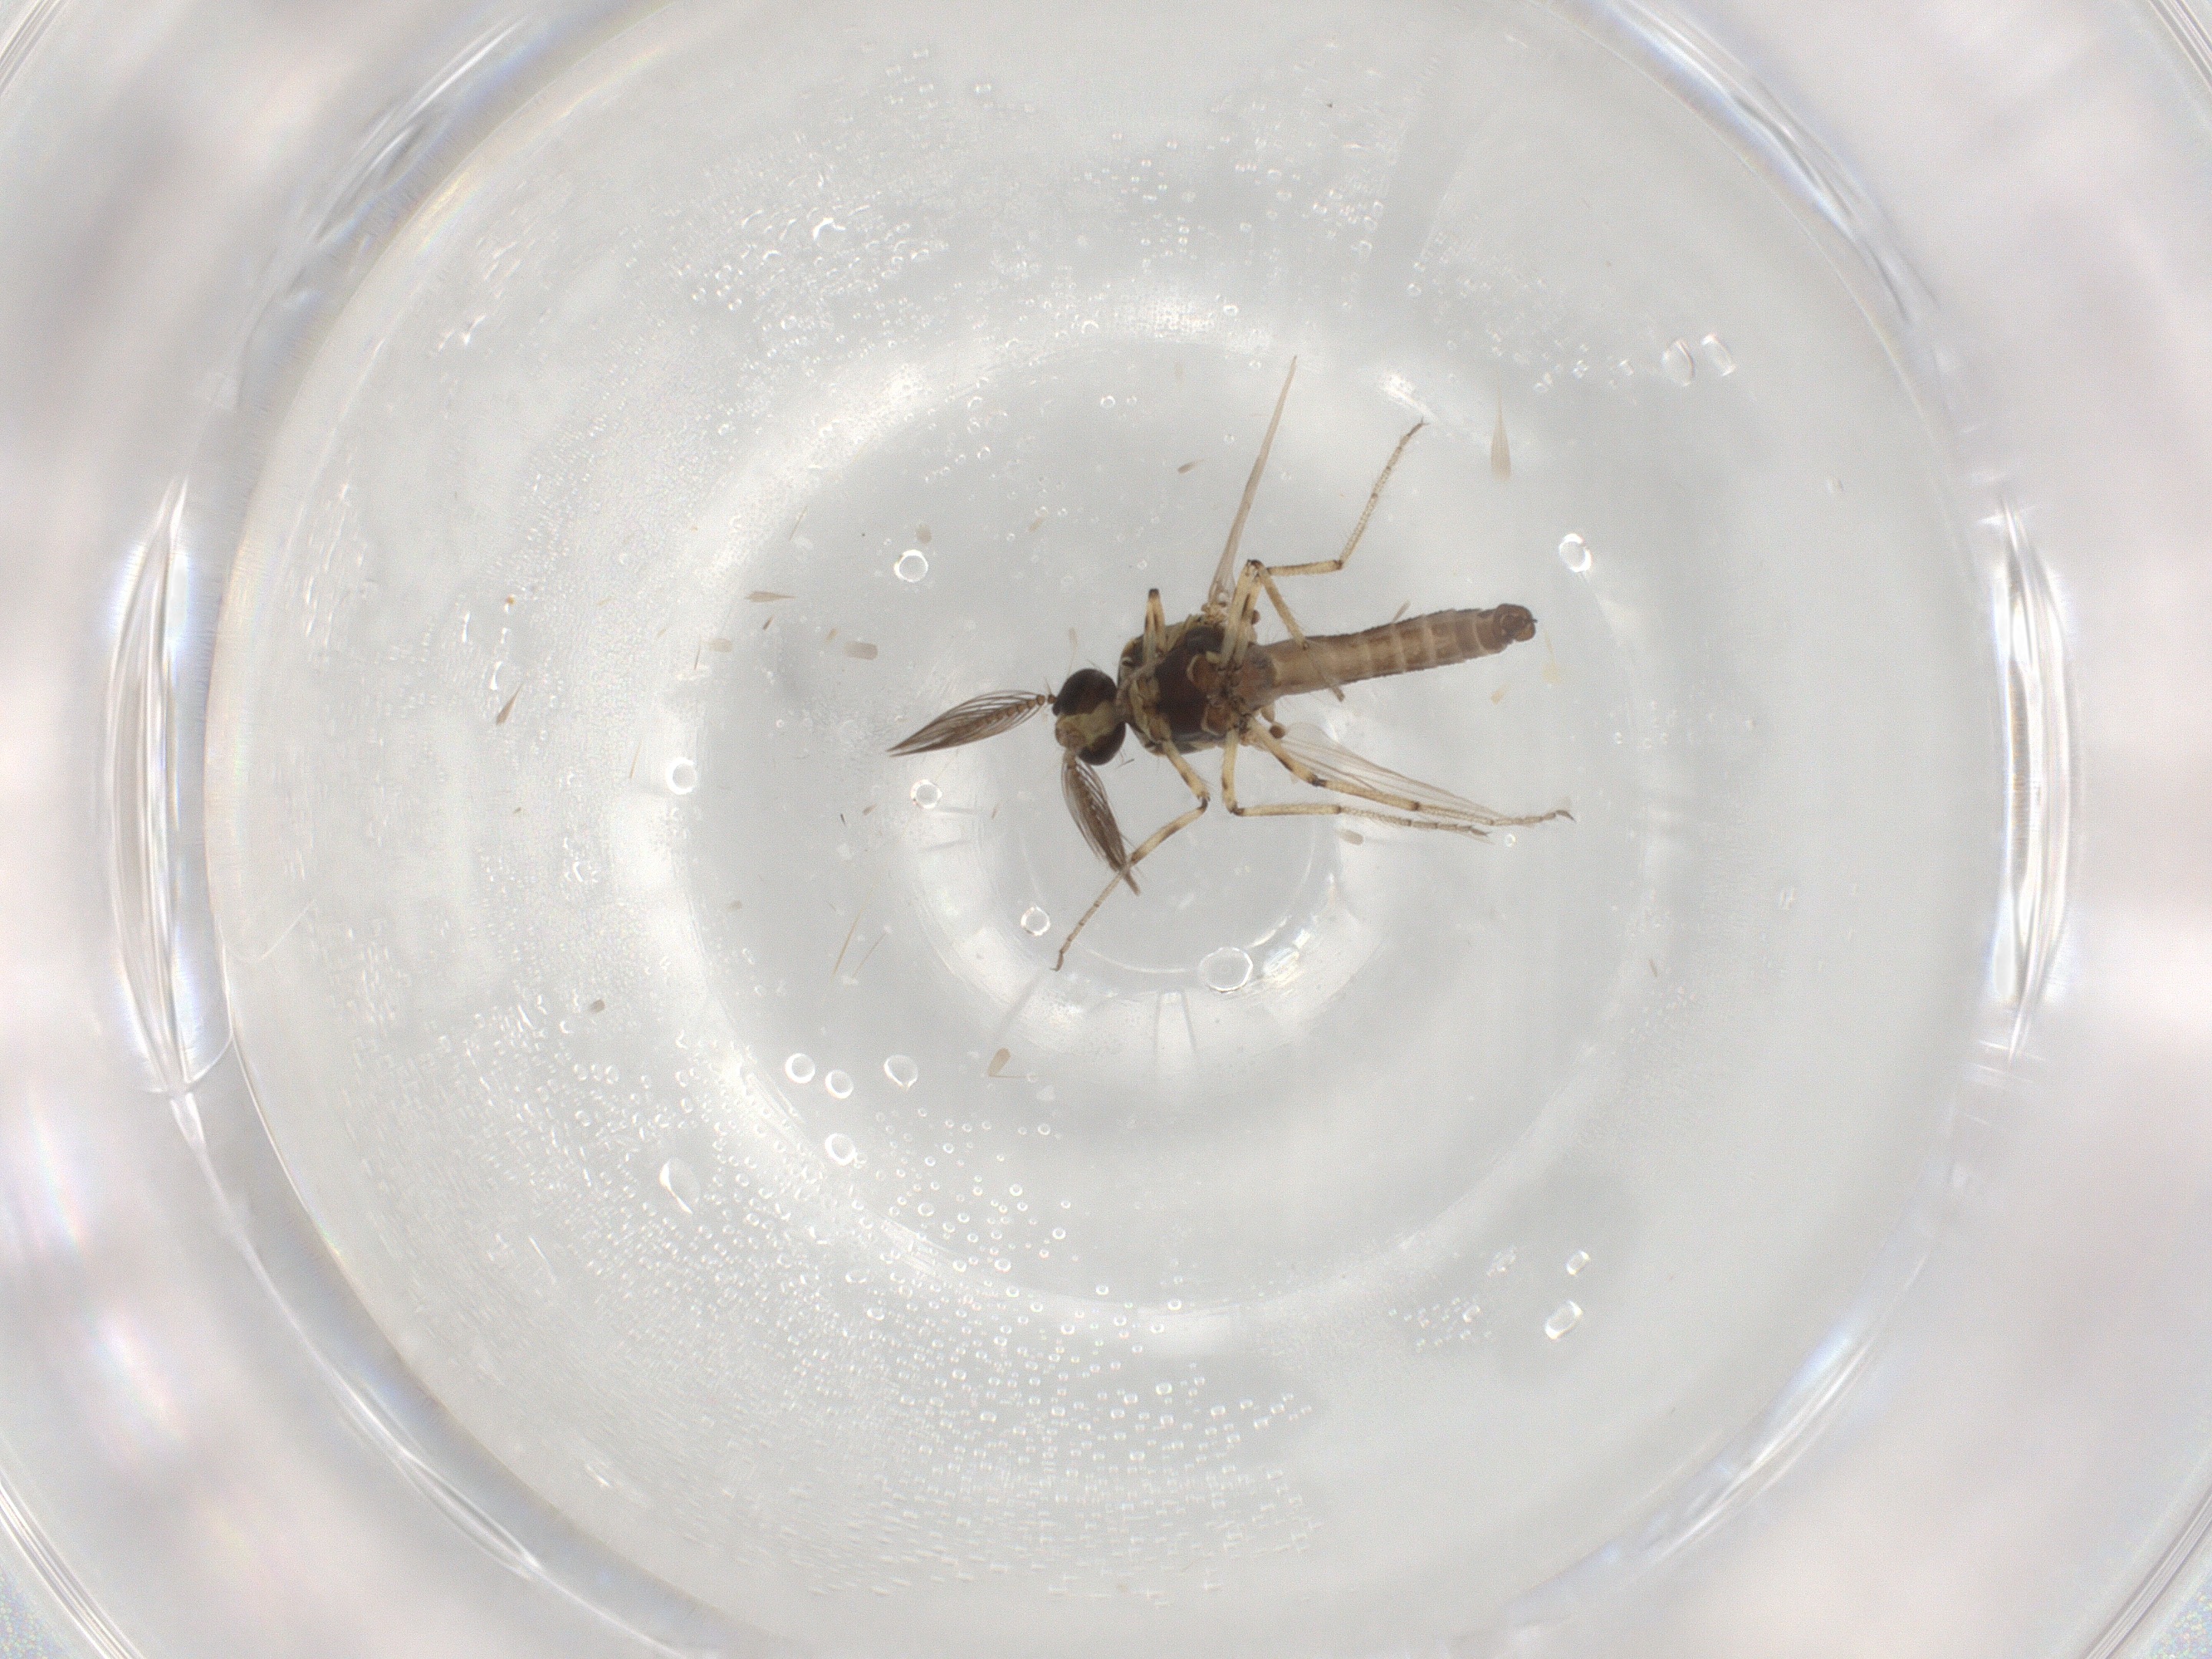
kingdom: Animalia
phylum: Arthropoda
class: Insecta
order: Diptera
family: Ceratopogonidae
